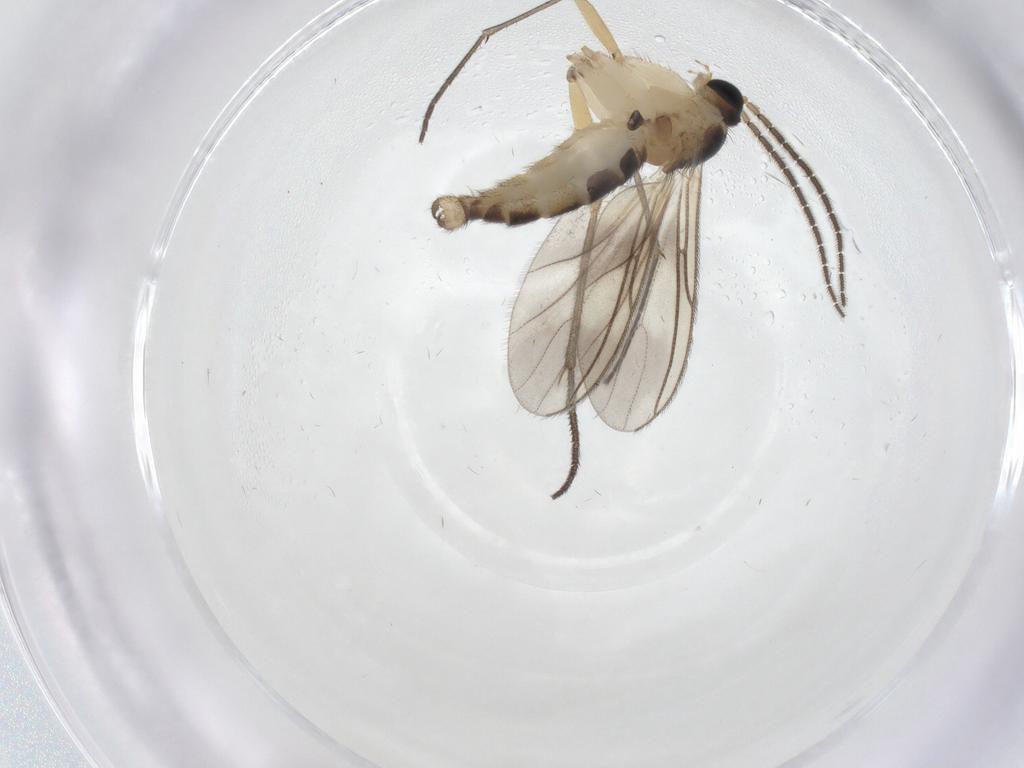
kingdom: Animalia
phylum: Arthropoda
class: Insecta
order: Diptera
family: Sciaridae
